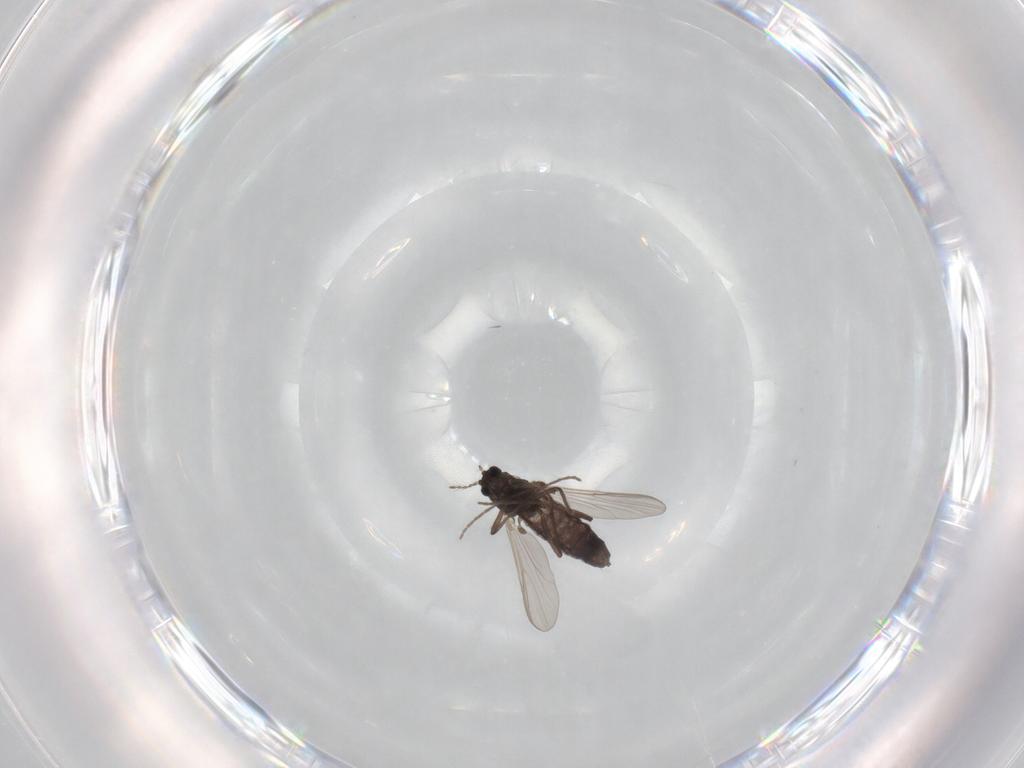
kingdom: Animalia
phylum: Arthropoda
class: Insecta
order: Diptera
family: Chironomidae
